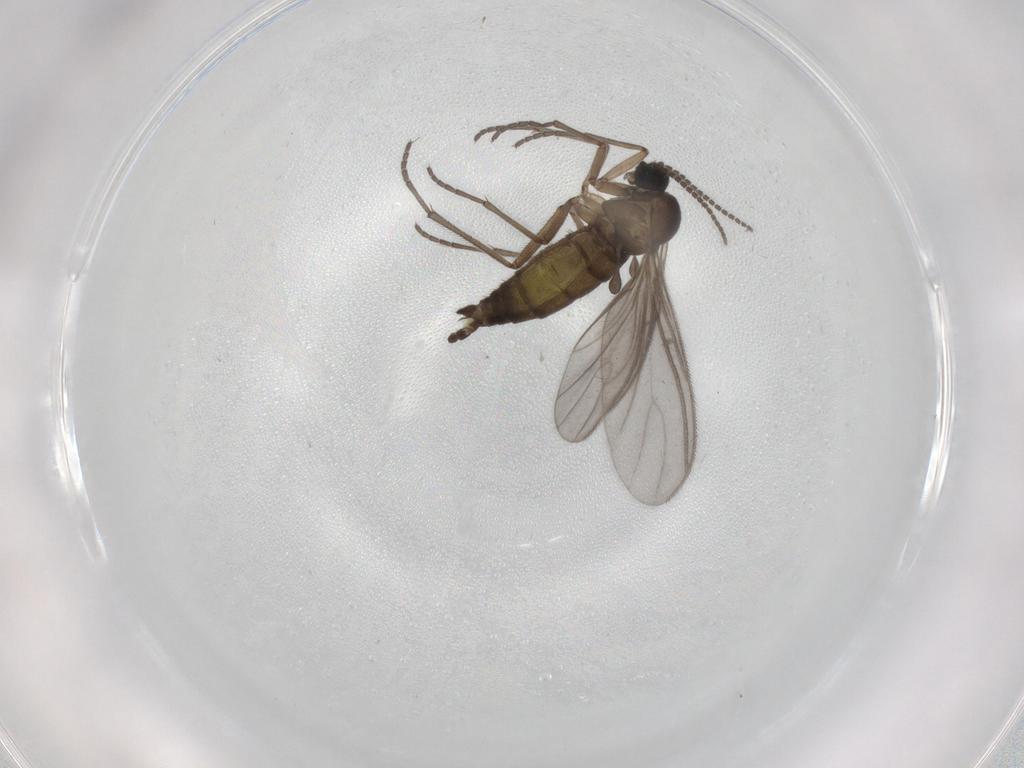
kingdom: Animalia
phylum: Arthropoda
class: Insecta
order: Diptera
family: Sciaridae
